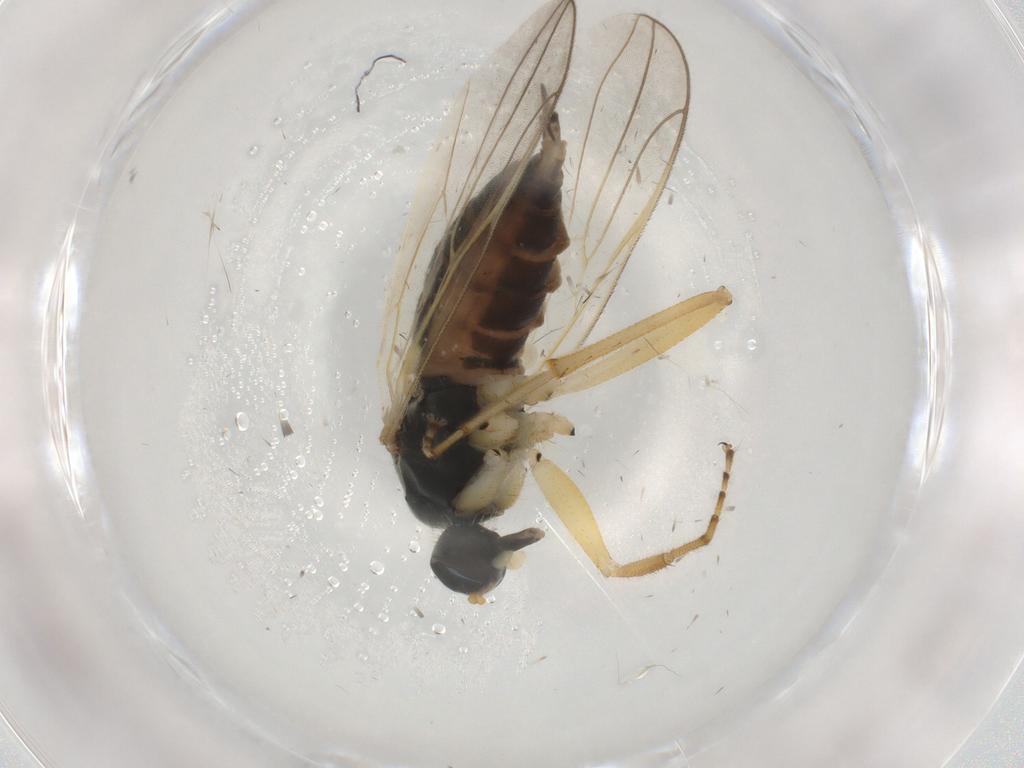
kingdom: Animalia
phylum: Arthropoda
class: Insecta
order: Diptera
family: Hybotidae
